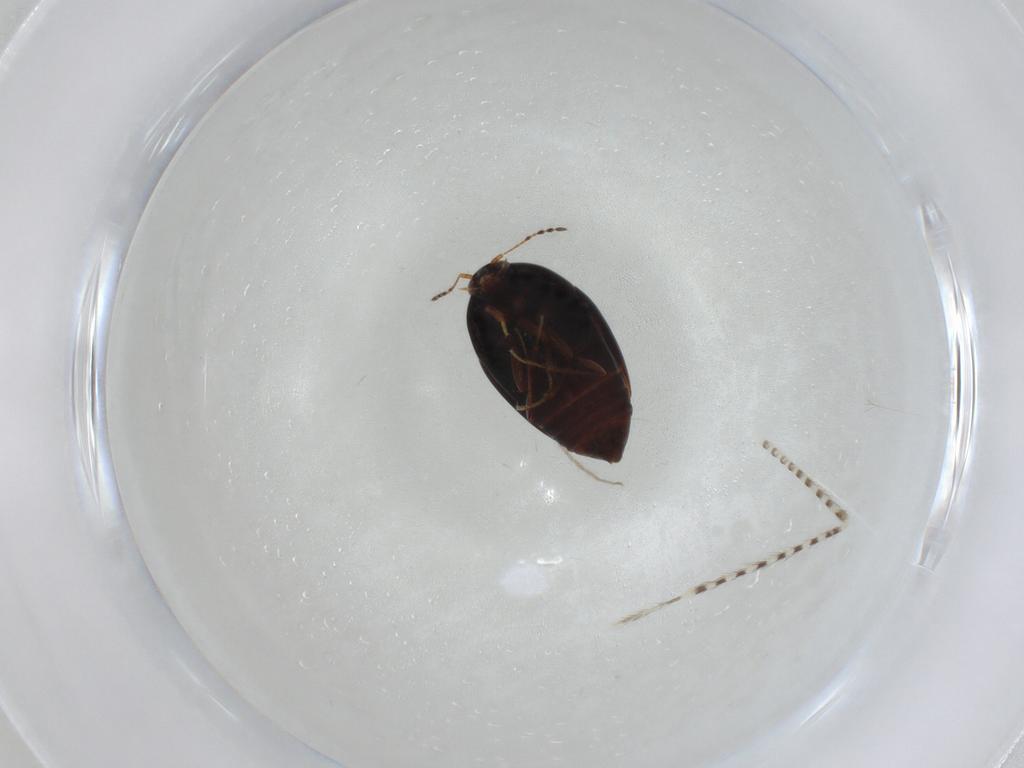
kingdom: Animalia
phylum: Arthropoda
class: Insecta
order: Coleoptera
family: Staphylinidae
